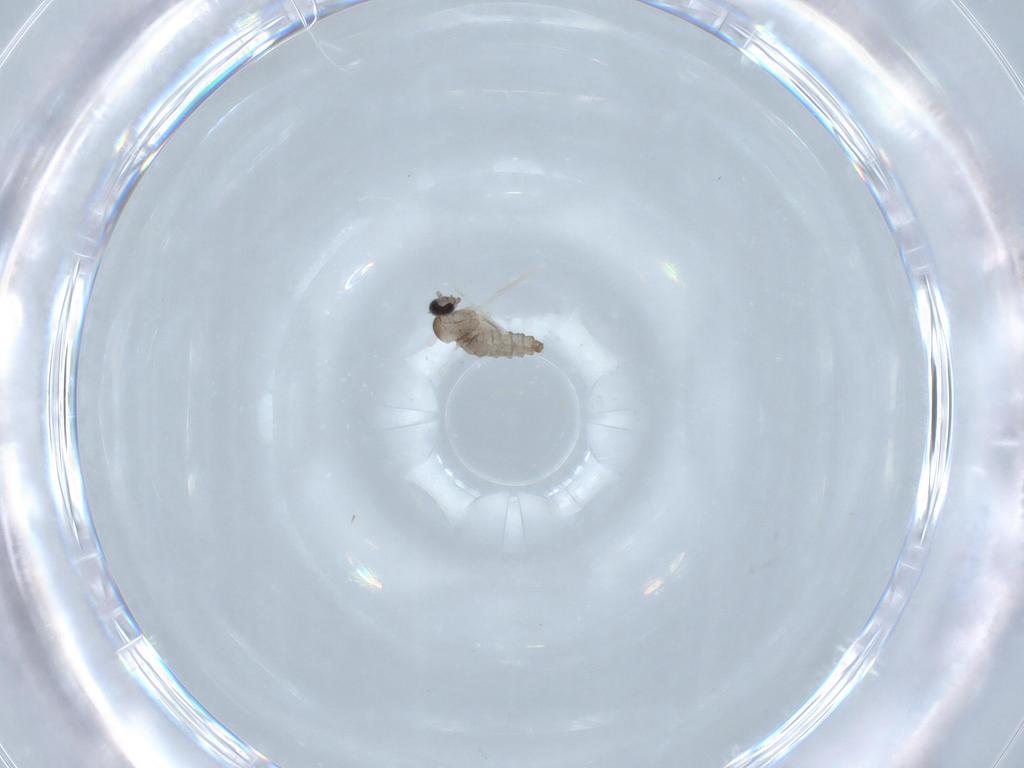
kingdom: Animalia
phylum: Arthropoda
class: Insecta
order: Diptera
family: Cecidomyiidae
